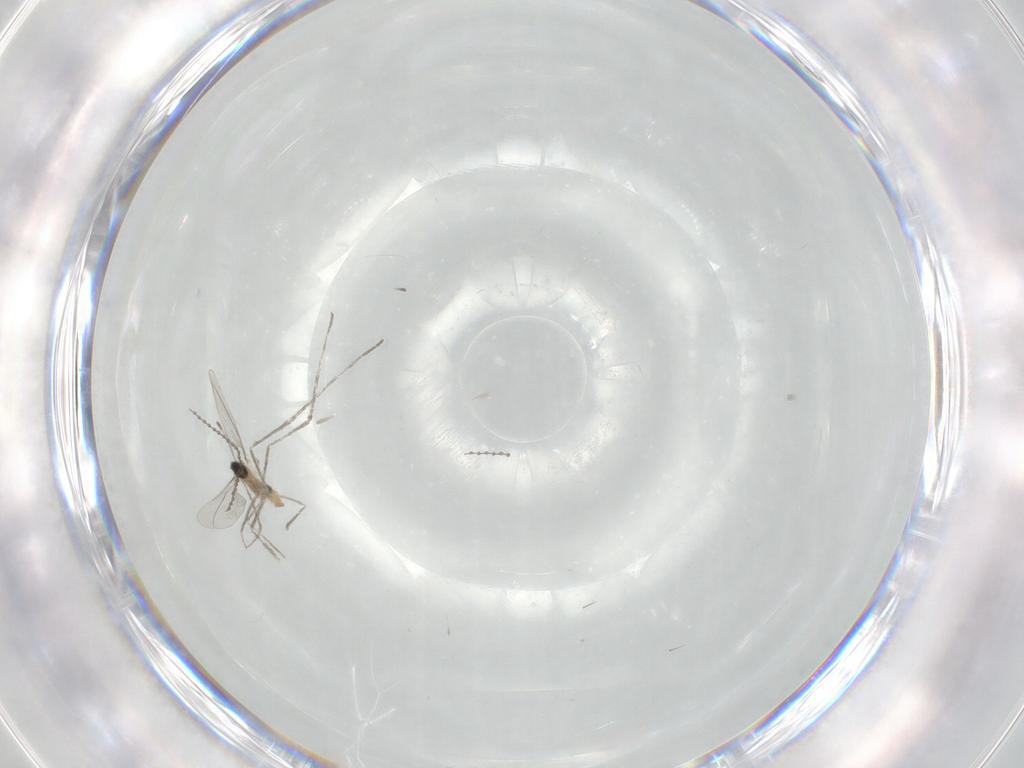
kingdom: Animalia
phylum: Arthropoda
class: Insecta
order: Diptera
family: Cecidomyiidae
